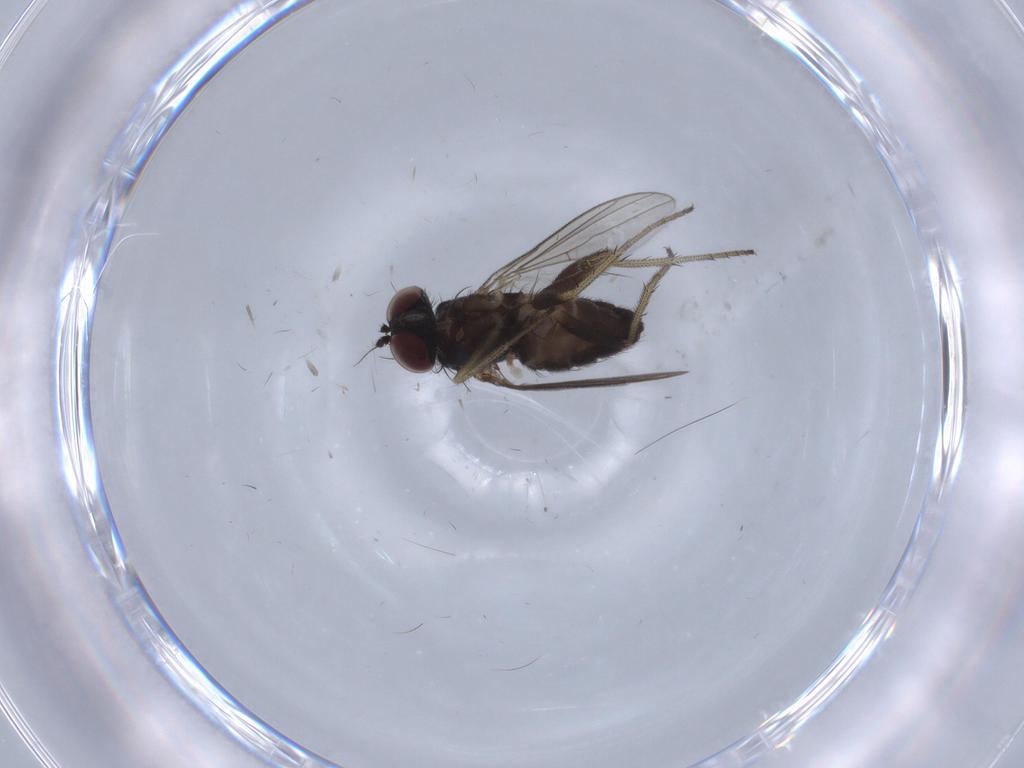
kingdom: Animalia
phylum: Arthropoda
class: Insecta
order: Diptera
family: Dolichopodidae
